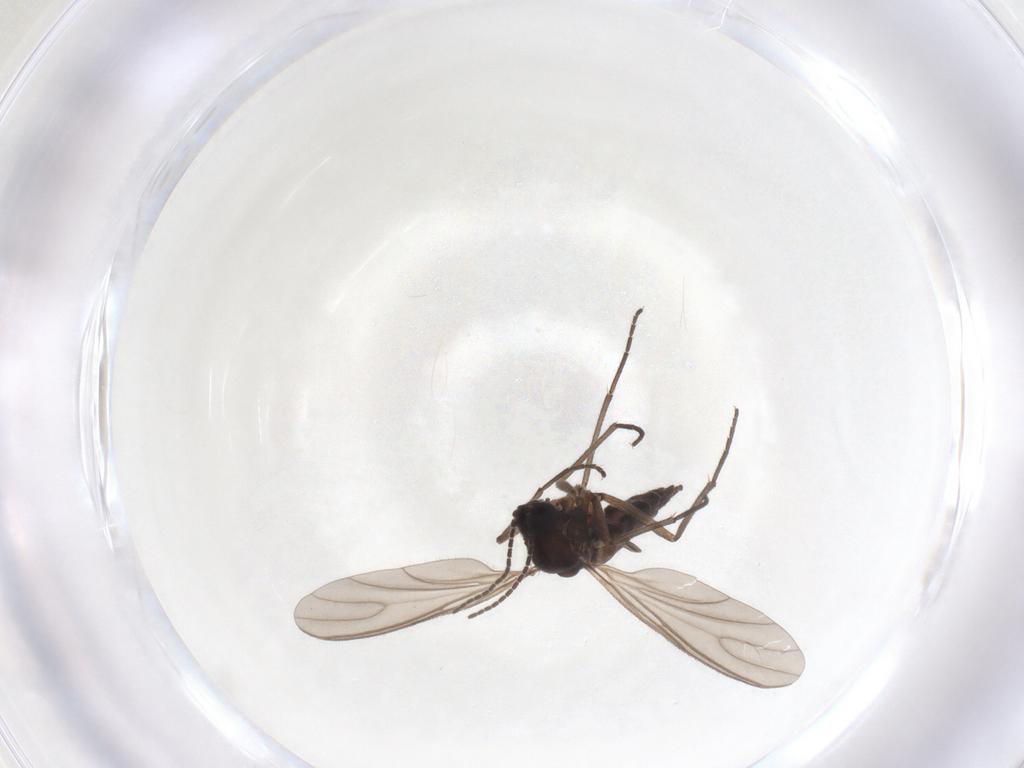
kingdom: Animalia
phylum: Arthropoda
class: Insecta
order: Diptera
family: Sciaridae
